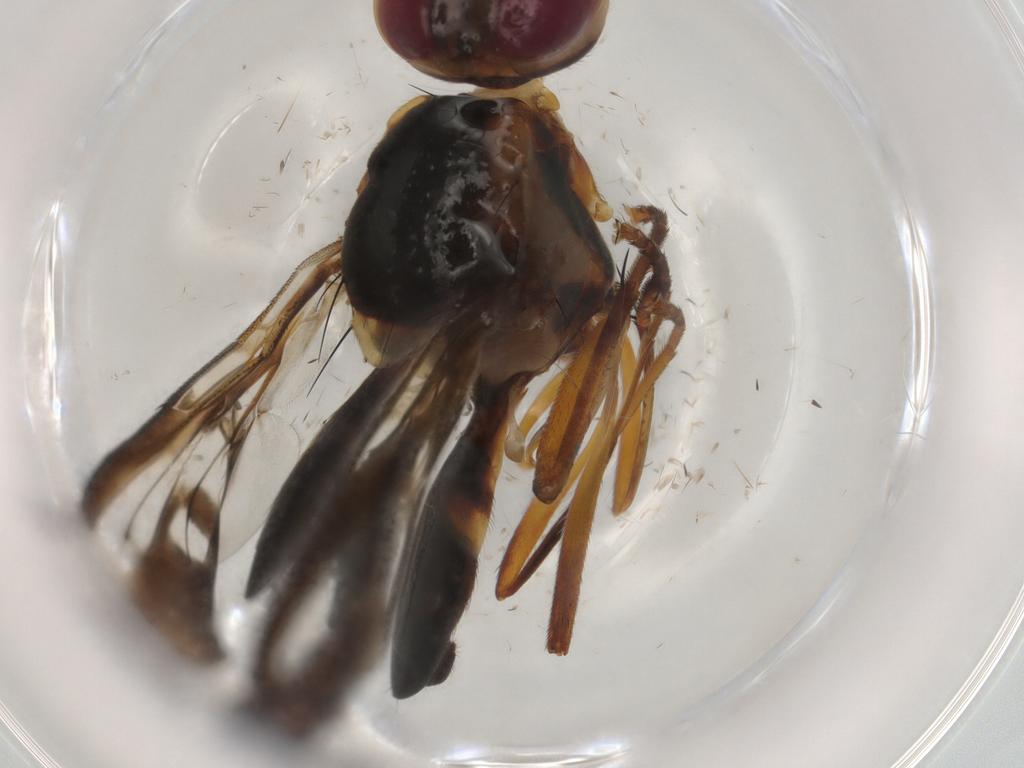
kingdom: Animalia
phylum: Arthropoda
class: Insecta
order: Diptera
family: Tephritidae
